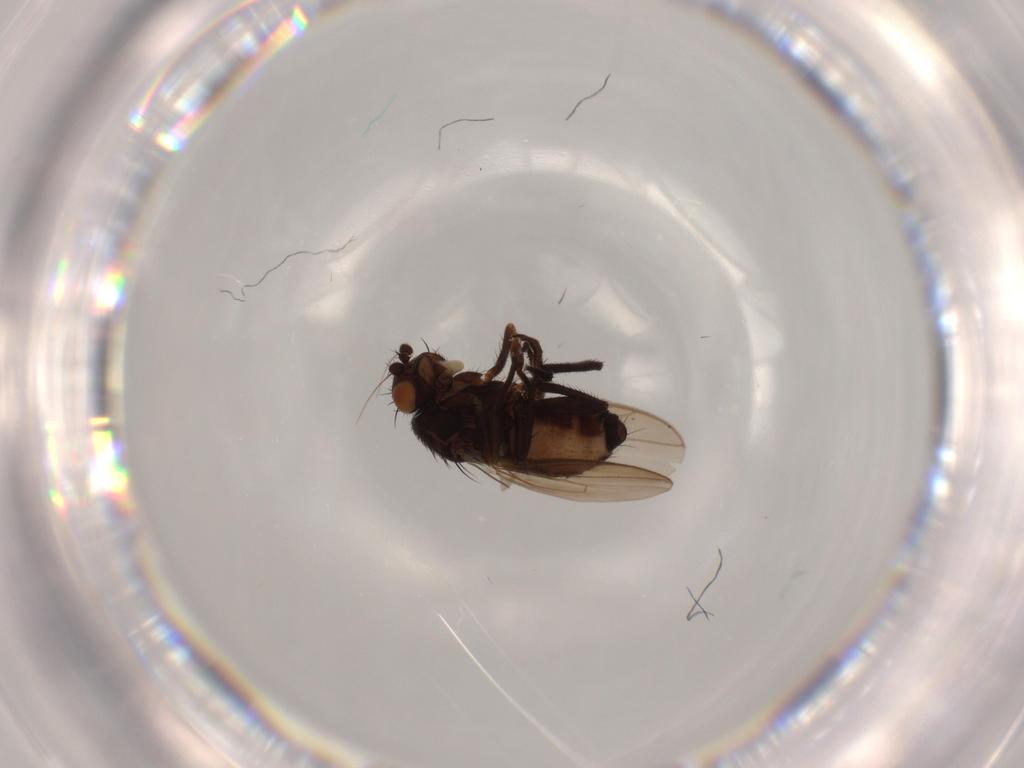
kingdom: Animalia
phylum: Arthropoda
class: Insecta
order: Diptera
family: Sphaeroceridae
